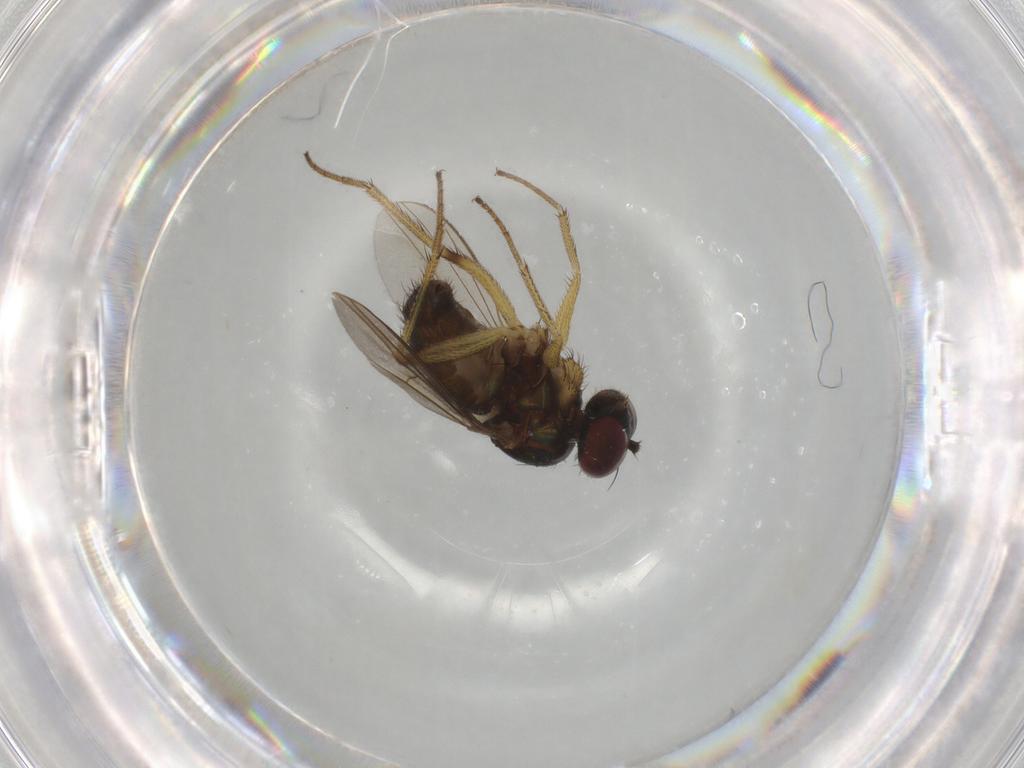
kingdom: Animalia
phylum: Arthropoda
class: Insecta
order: Diptera
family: Dolichopodidae
